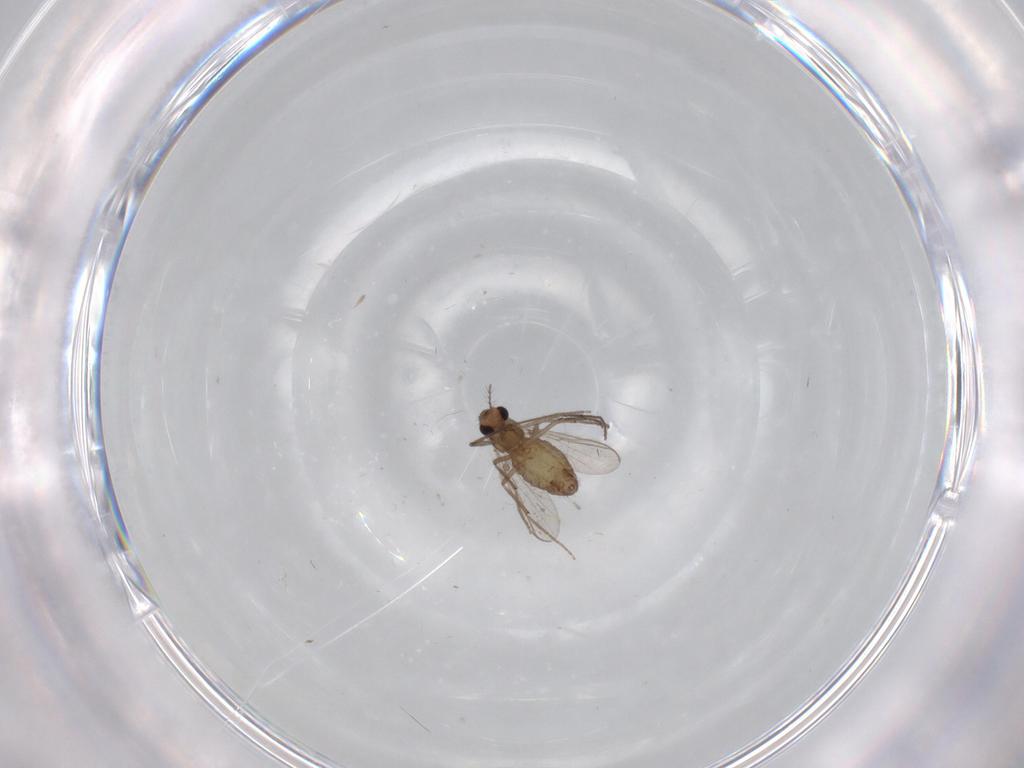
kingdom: Animalia
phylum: Arthropoda
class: Insecta
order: Diptera
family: Chironomidae
